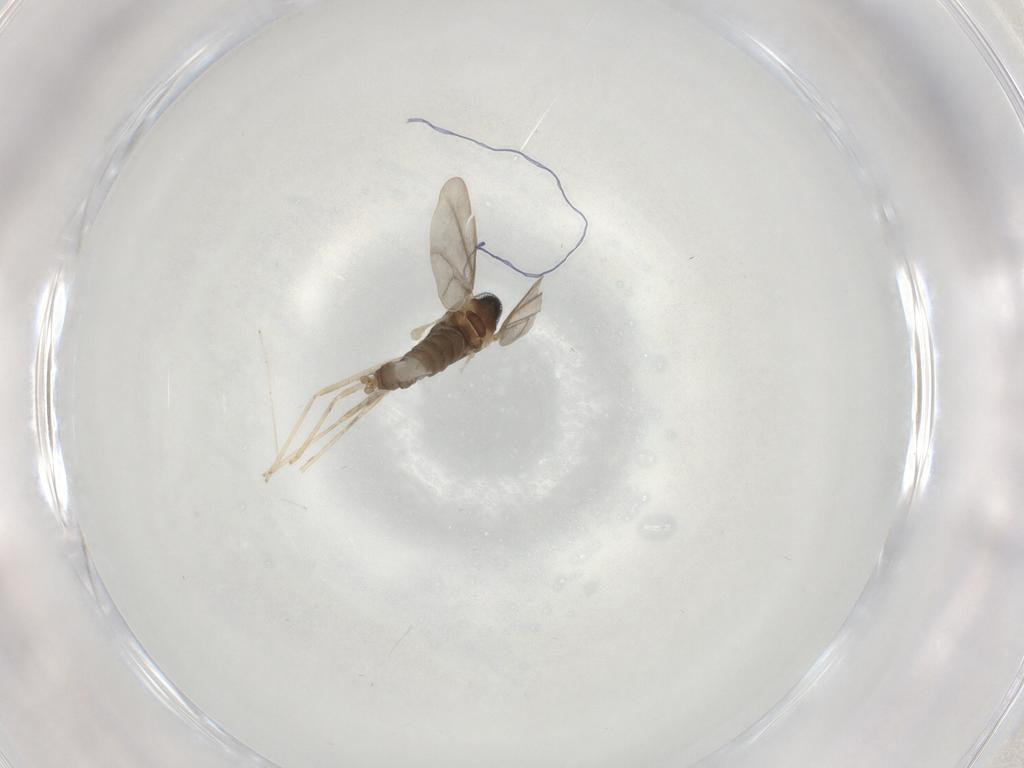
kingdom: Animalia
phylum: Arthropoda
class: Insecta
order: Diptera
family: Cecidomyiidae
